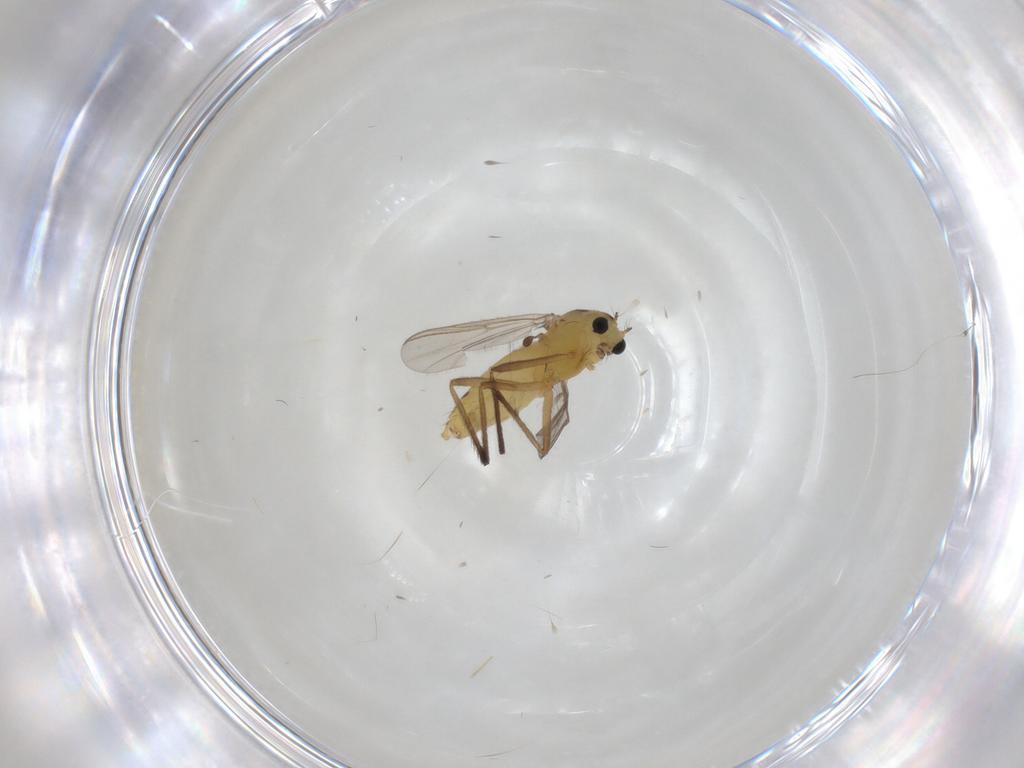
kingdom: Animalia
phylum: Arthropoda
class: Insecta
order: Diptera
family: Chironomidae
